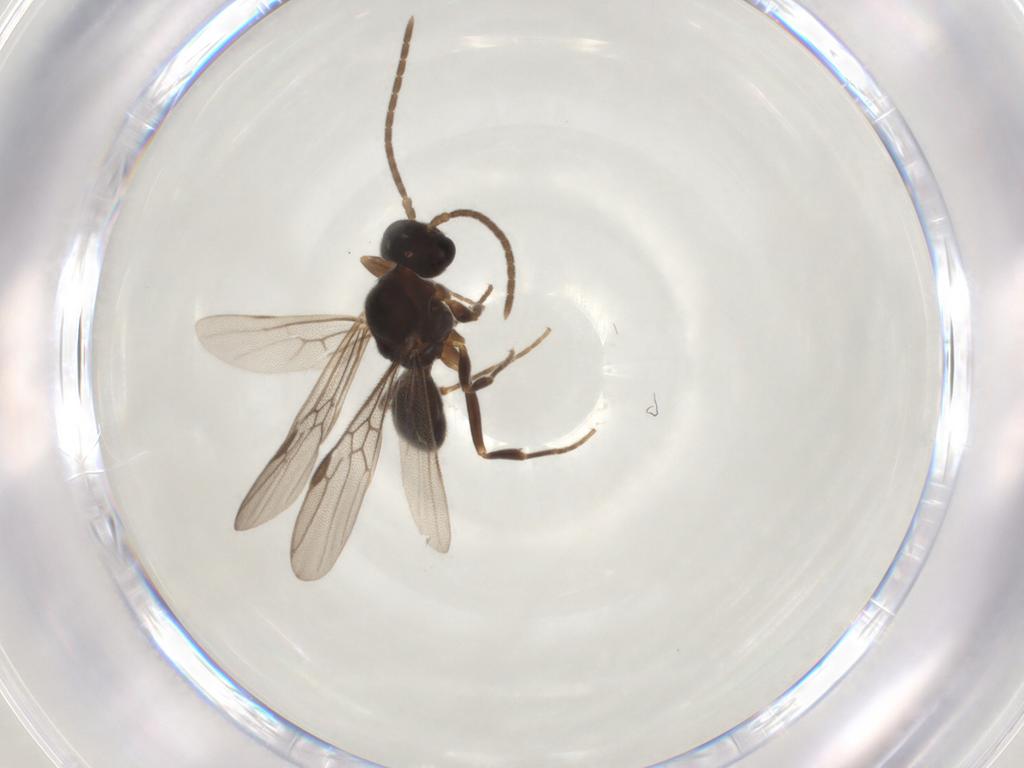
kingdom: Animalia
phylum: Arthropoda
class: Insecta
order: Hymenoptera
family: Formicidae
